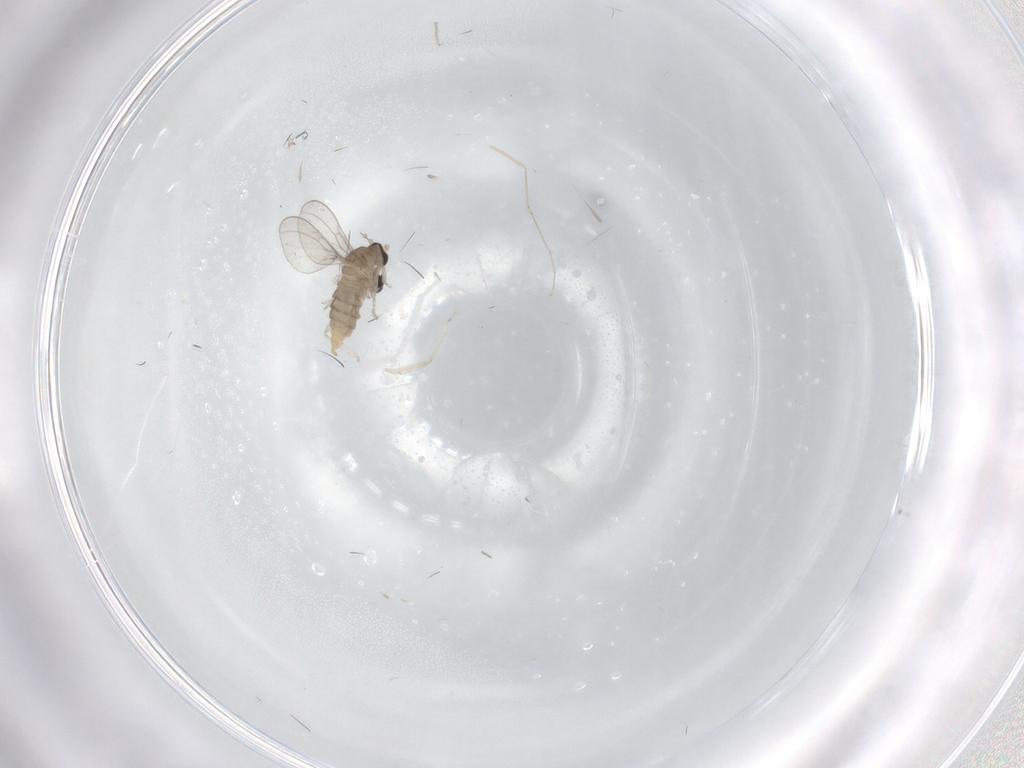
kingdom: Animalia
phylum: Arthropoda
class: Insecta
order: Diptera
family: Cecidomyiidae
